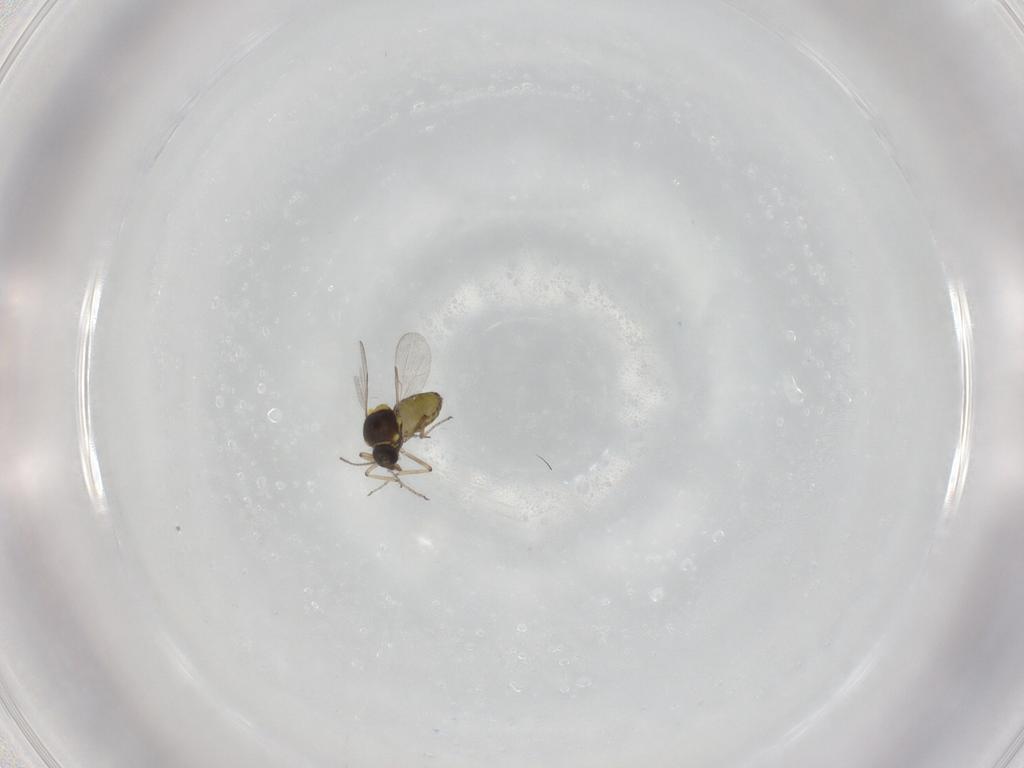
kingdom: Animalia
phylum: Arthropoda
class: Insecta
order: Diptera
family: Ceratopogonidae
